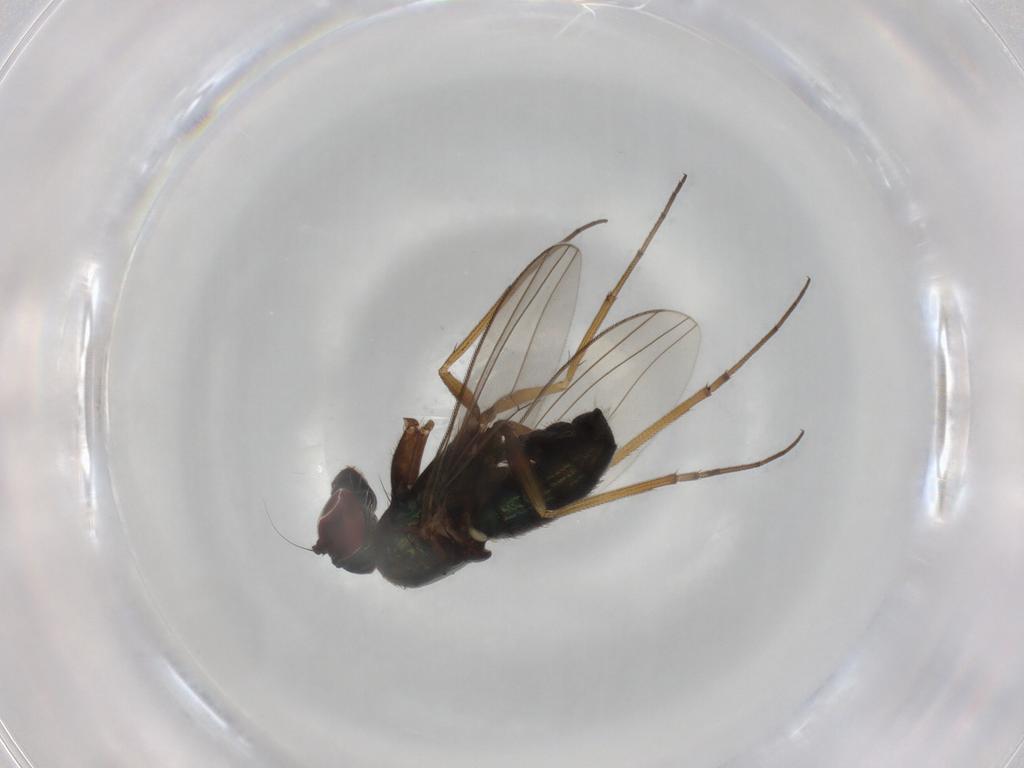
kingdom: Animalia
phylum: Arthropoda
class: Insecta
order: Diptera
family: Dolichopodidae
